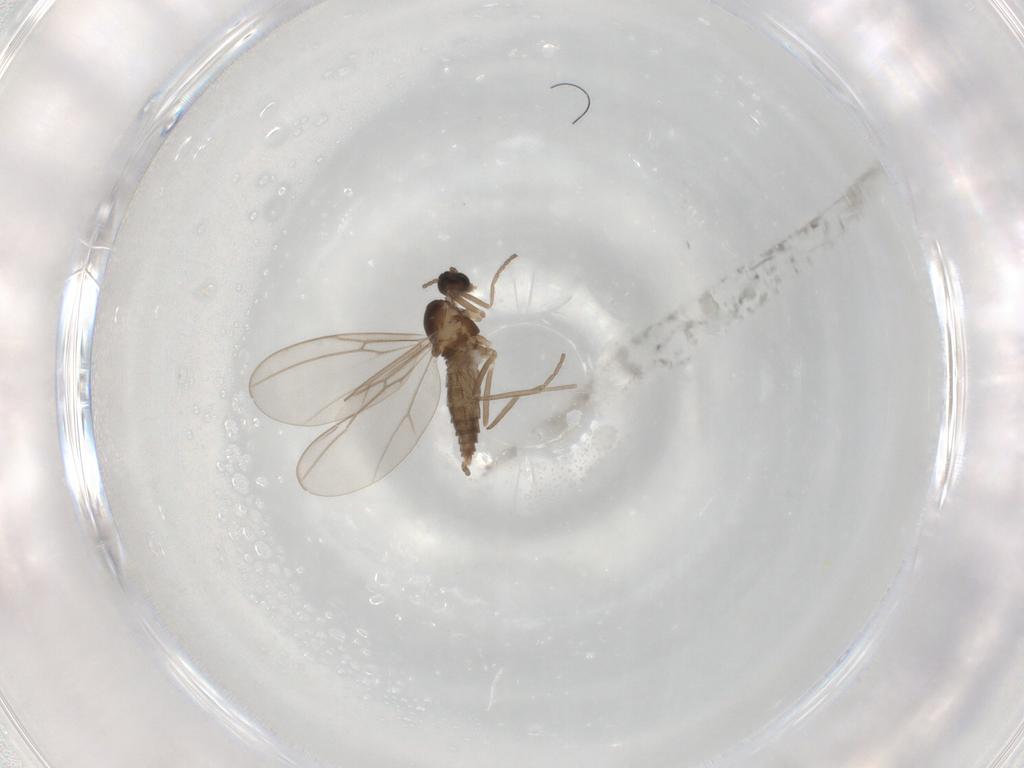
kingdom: Animalia
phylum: Arthropoda
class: Insecta
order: Diptera
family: Cecidomyiidae
